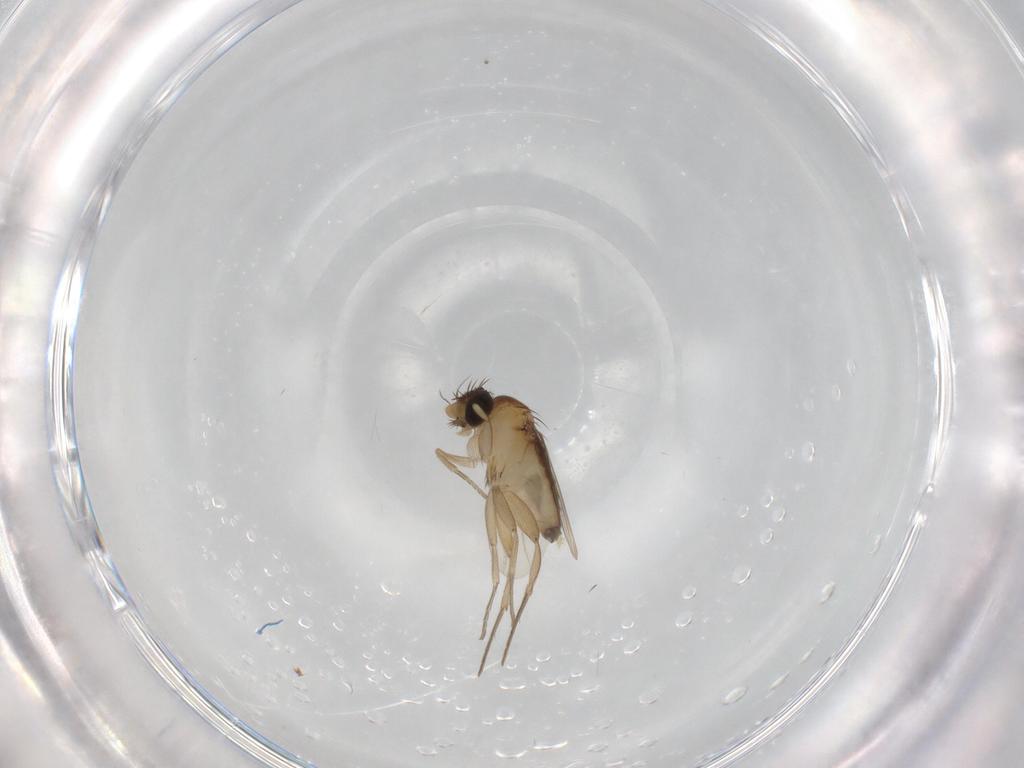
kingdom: Animalia
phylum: Arthropoda
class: Insecta
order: Diptera
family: Phoridae
